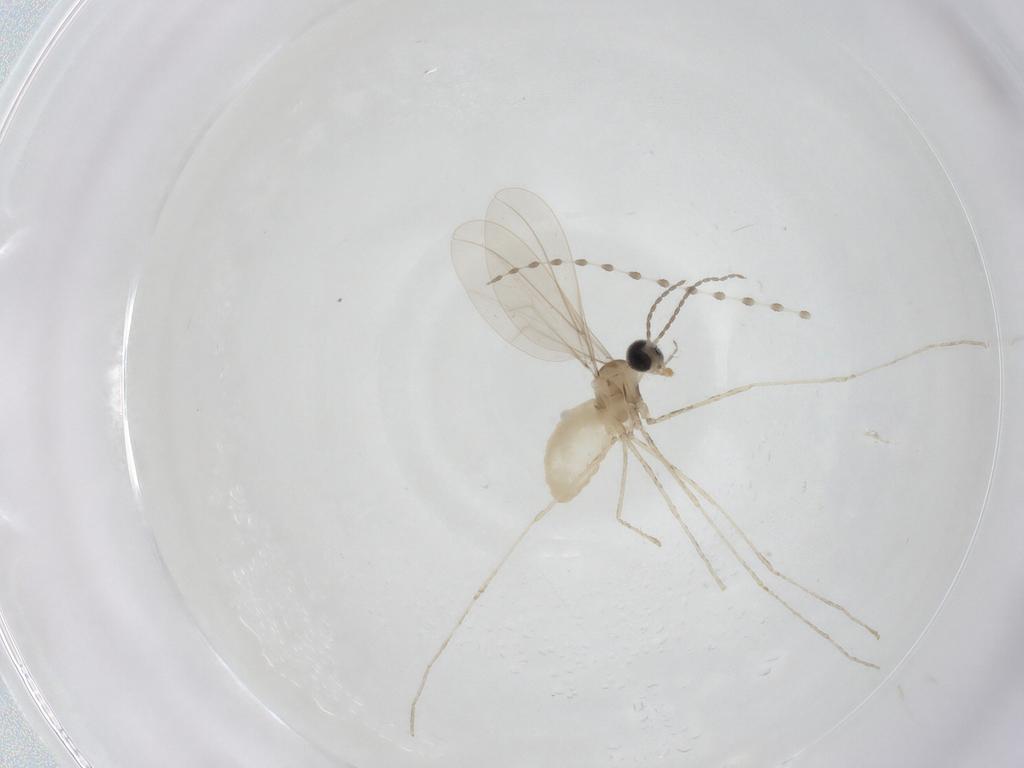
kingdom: Animalia
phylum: Arthropoda
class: Insecta
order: Diptera
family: Cecidomyiidae
